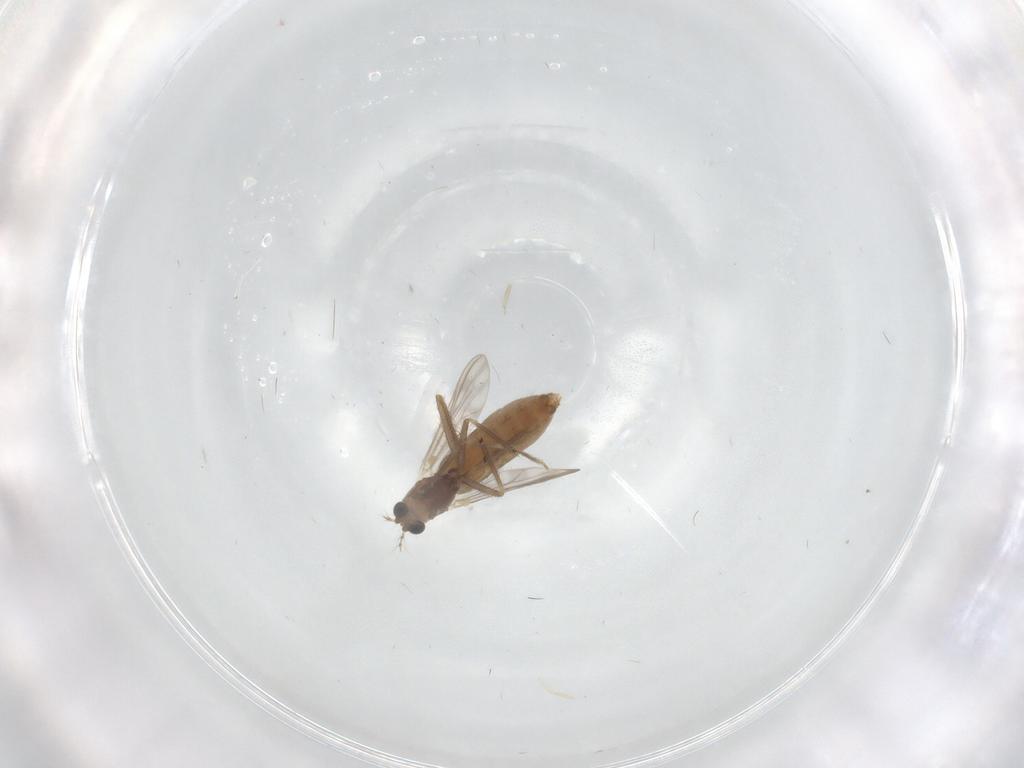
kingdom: Animalia
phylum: Arthropoda
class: Insecta
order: Diptera
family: Chironomidae
